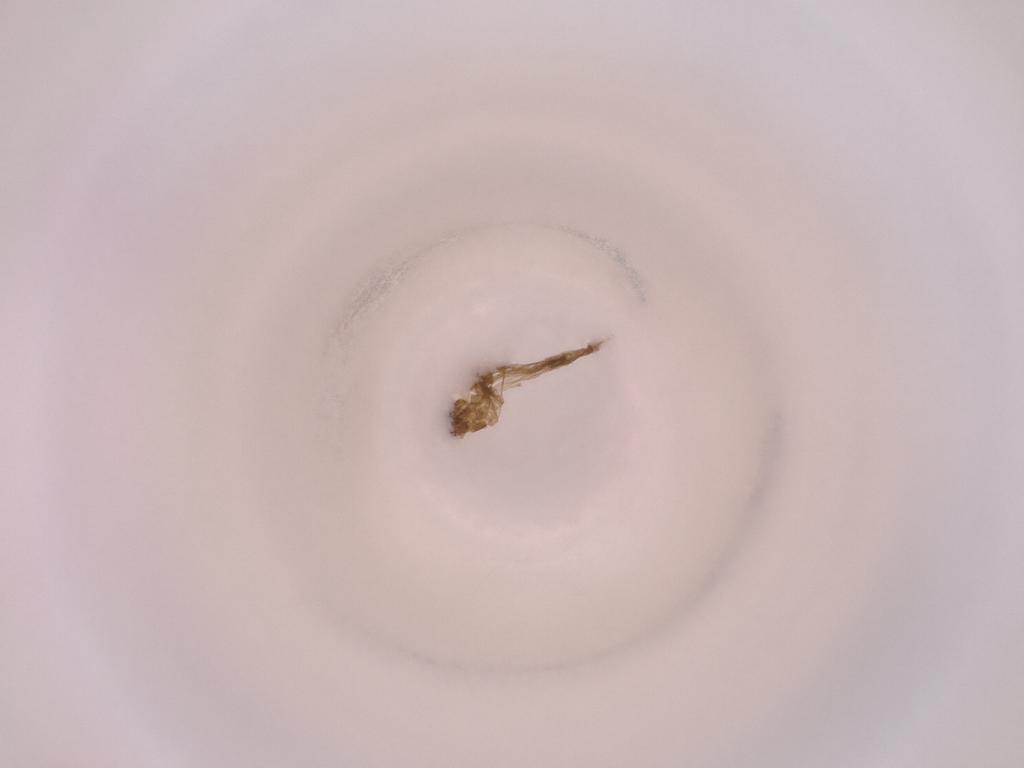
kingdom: Animalia
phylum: Arthropoda
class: Insecta
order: Diptera
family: Cecidomyiidae
